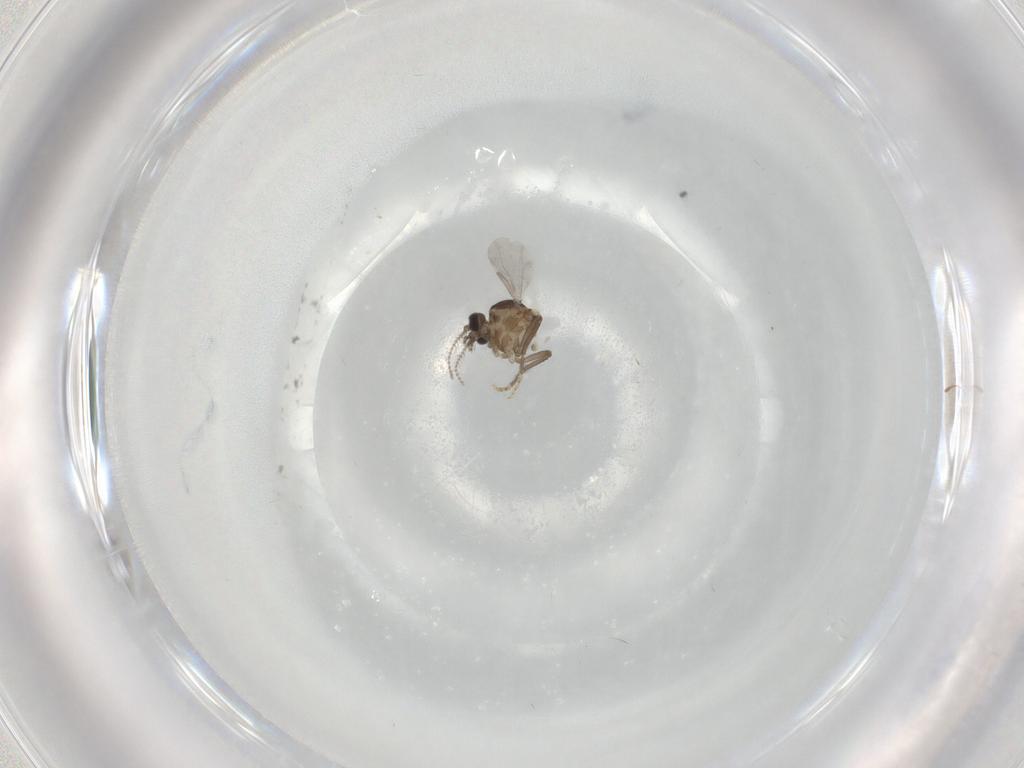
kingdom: Animalia
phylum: Arthropoda
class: Insecta
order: Diptera
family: Ceratopogonidae
